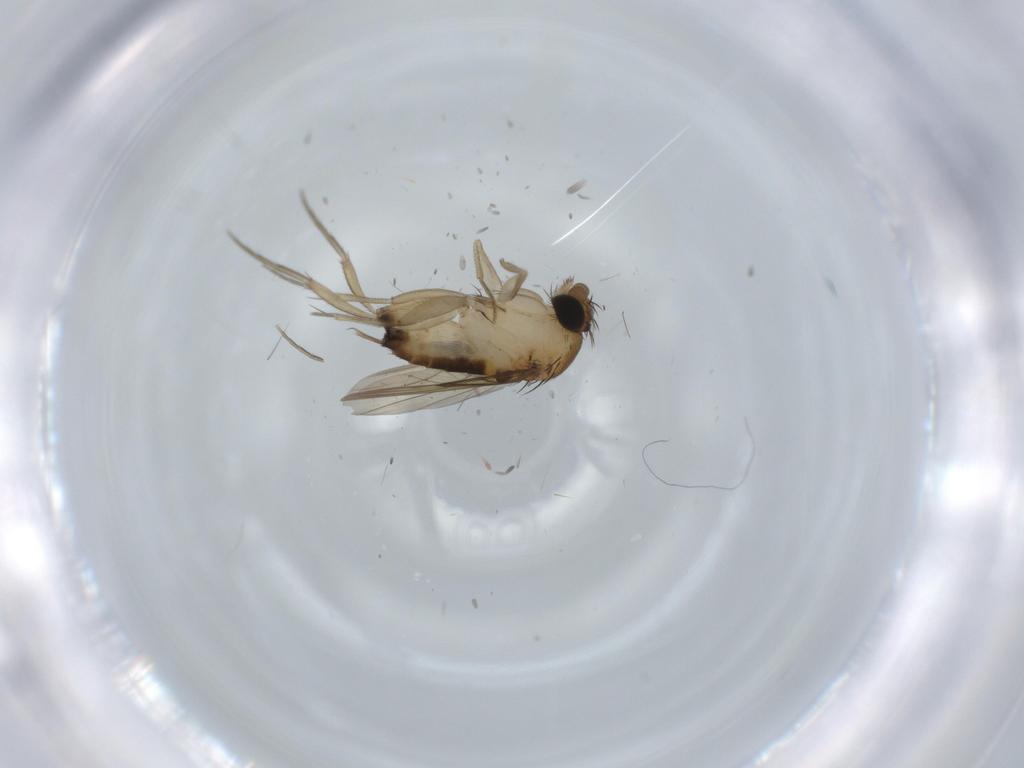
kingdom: Animalia
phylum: Arthropoda
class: Insecta
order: Diptera
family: Phoridae
